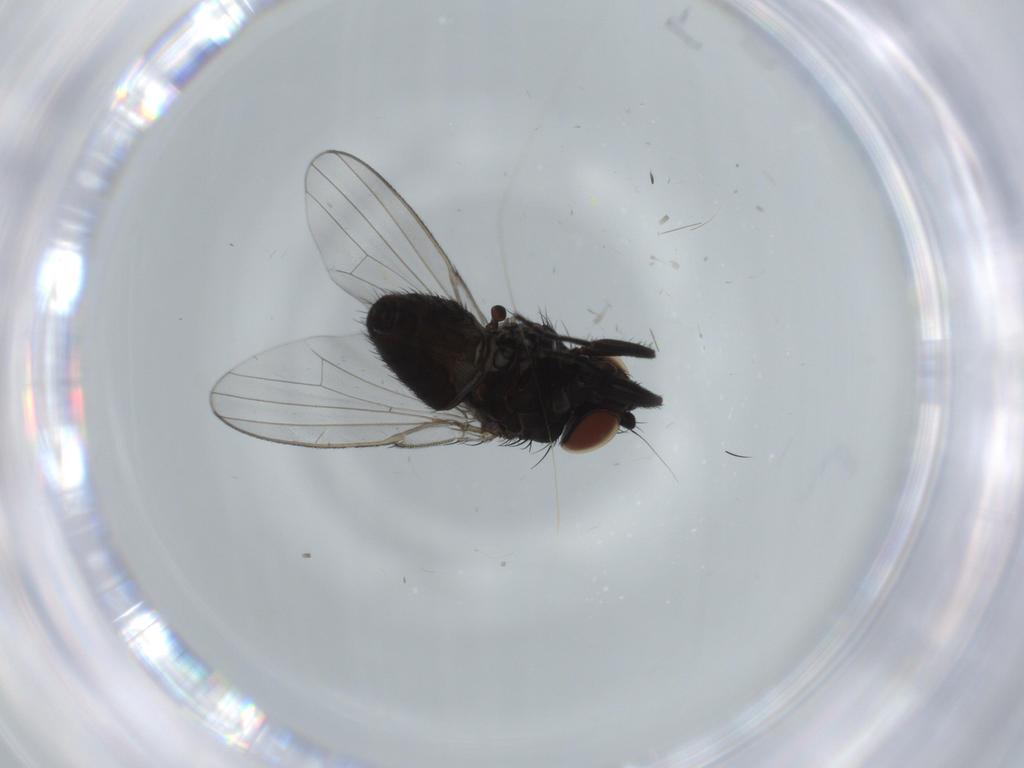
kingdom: Animalia
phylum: Arthropoda
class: Insecta
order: Diptera
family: Milichiidae
